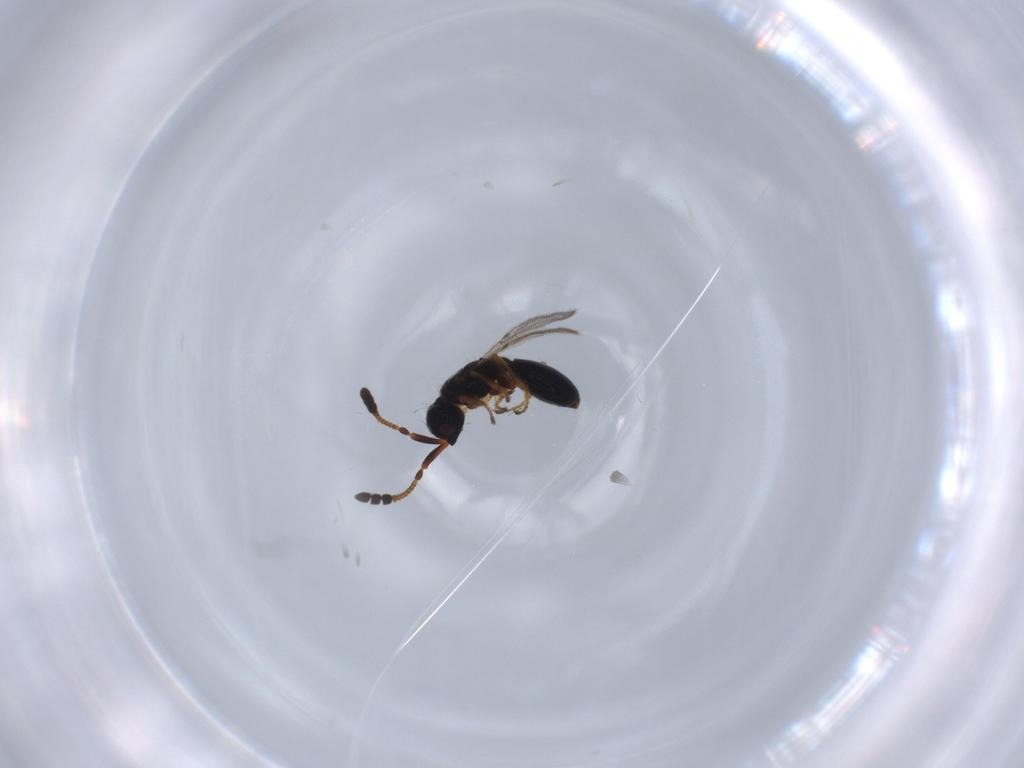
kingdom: Animalia
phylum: Arthropoda
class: Insecta
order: Hymenoptera
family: Diapriidae
